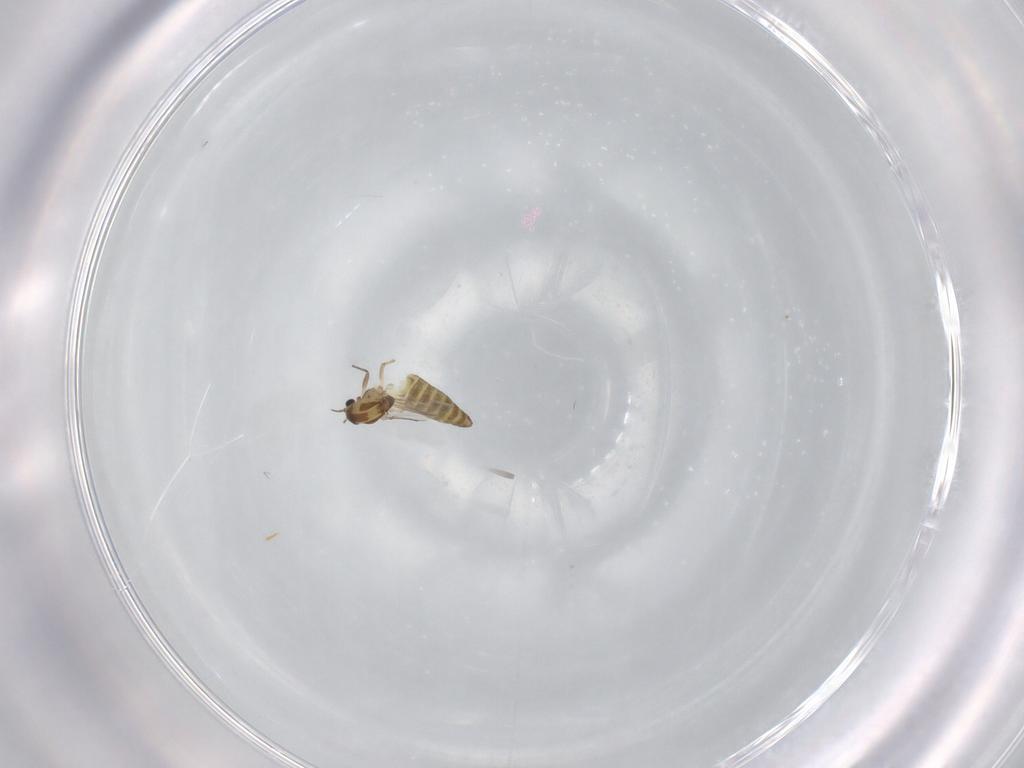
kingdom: Animalia
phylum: Arthropoda
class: Insecta
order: Diptera
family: Chironomidae
